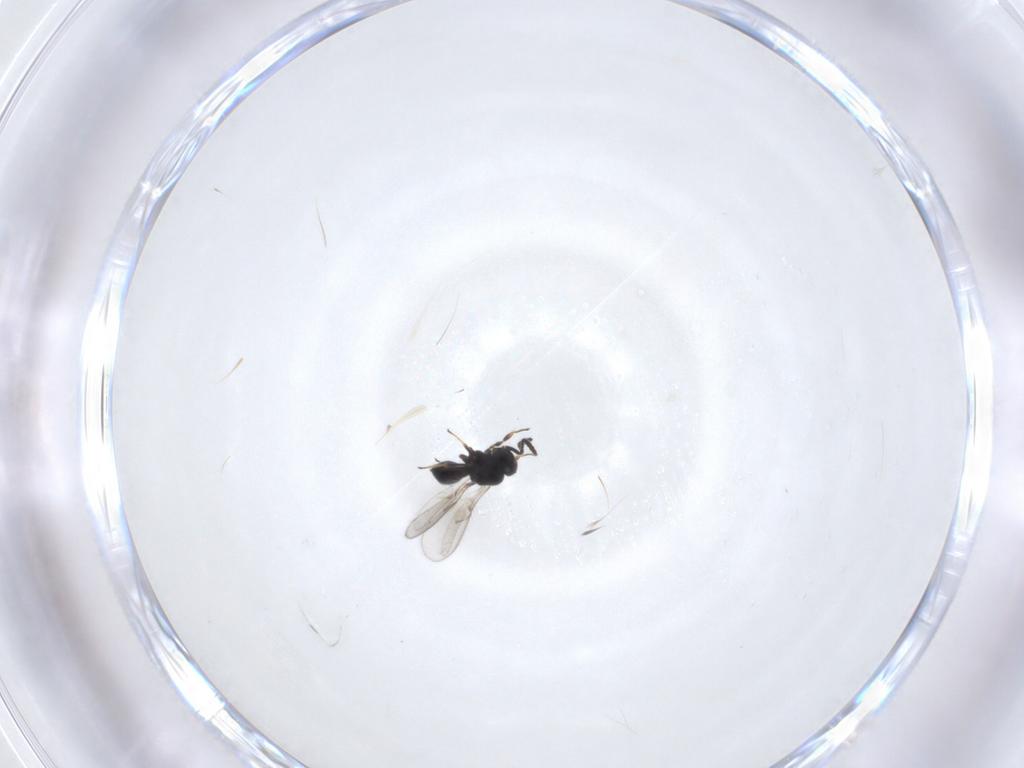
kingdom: Animalia
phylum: Arthropoda
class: Insecta
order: Hymenoptera
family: Scelionidae
